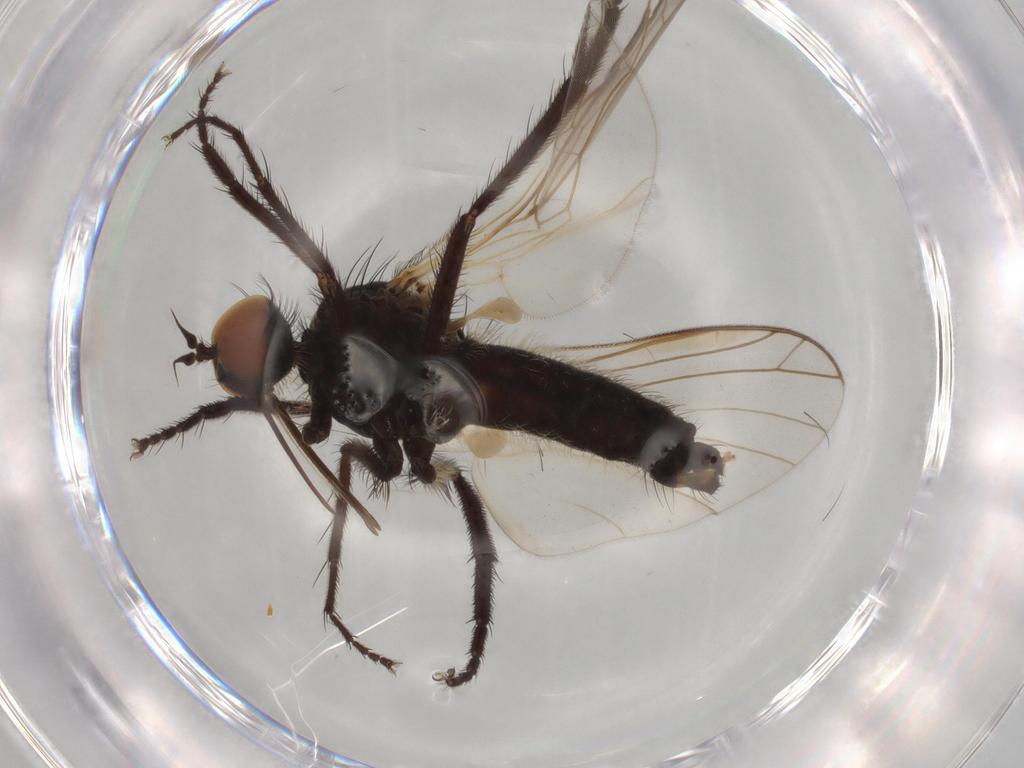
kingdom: Animalia
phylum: Arthropoda
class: Insecta
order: Diptera
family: Empididae
